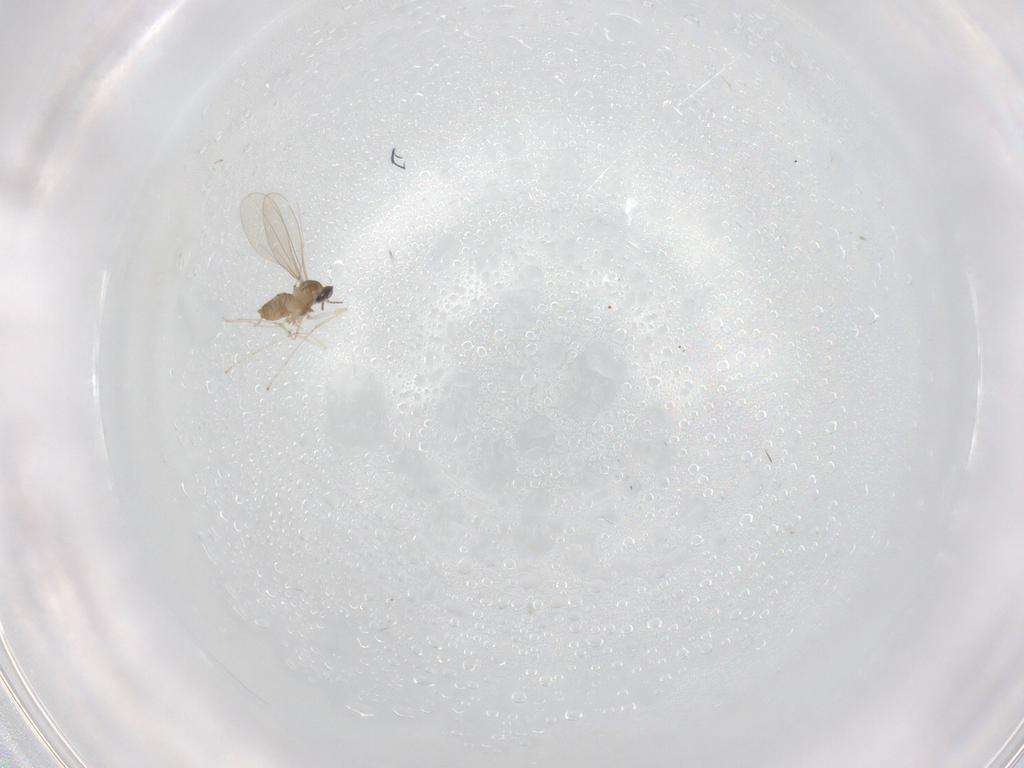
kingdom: Animalia
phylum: Arthropoda
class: Insecta
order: Diptera
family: Cecidomyiidae
